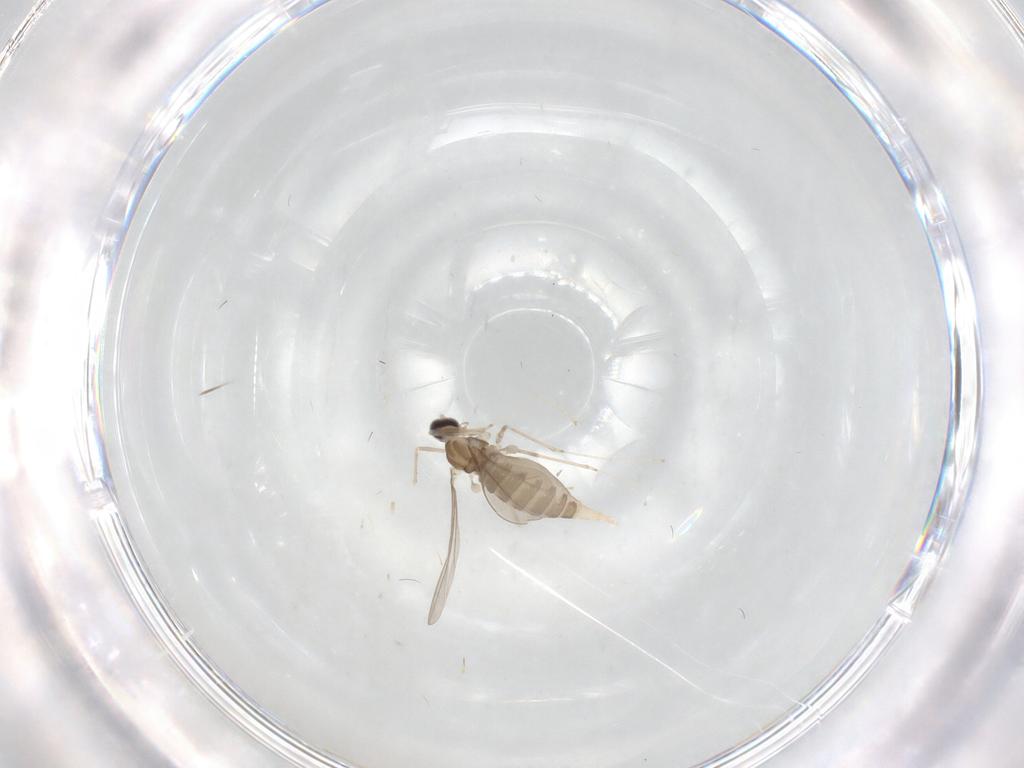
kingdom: Animalia
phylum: Arthropoda
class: Insecta
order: Diptera
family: Cecidomyiidae
